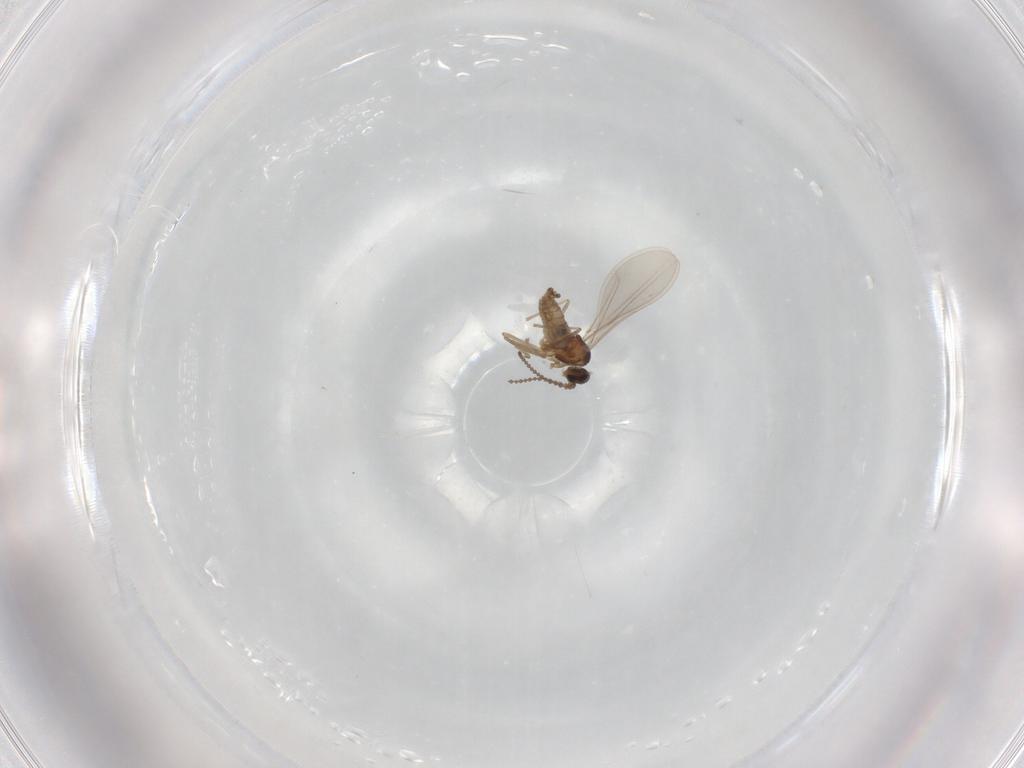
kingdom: Animalia
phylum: Arthropoda
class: Insecta
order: Diptera
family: Cecidomyiidae
